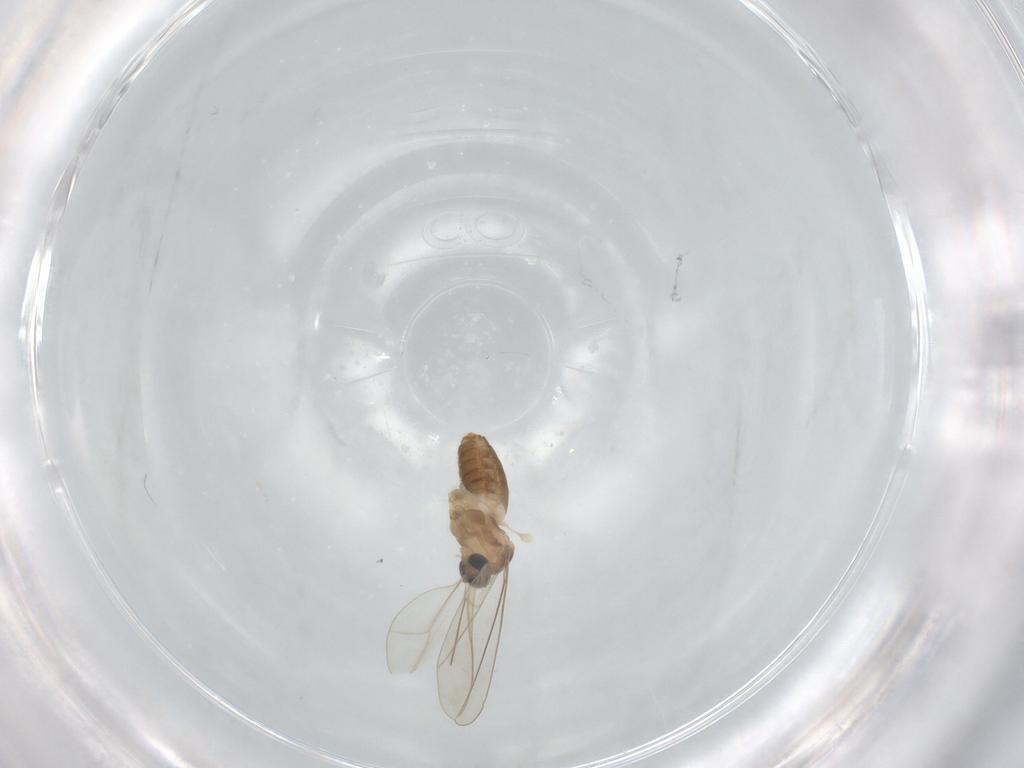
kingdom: Animalia
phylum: Arthropoda
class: Insecta
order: Diptera
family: Cecidomyiidae
